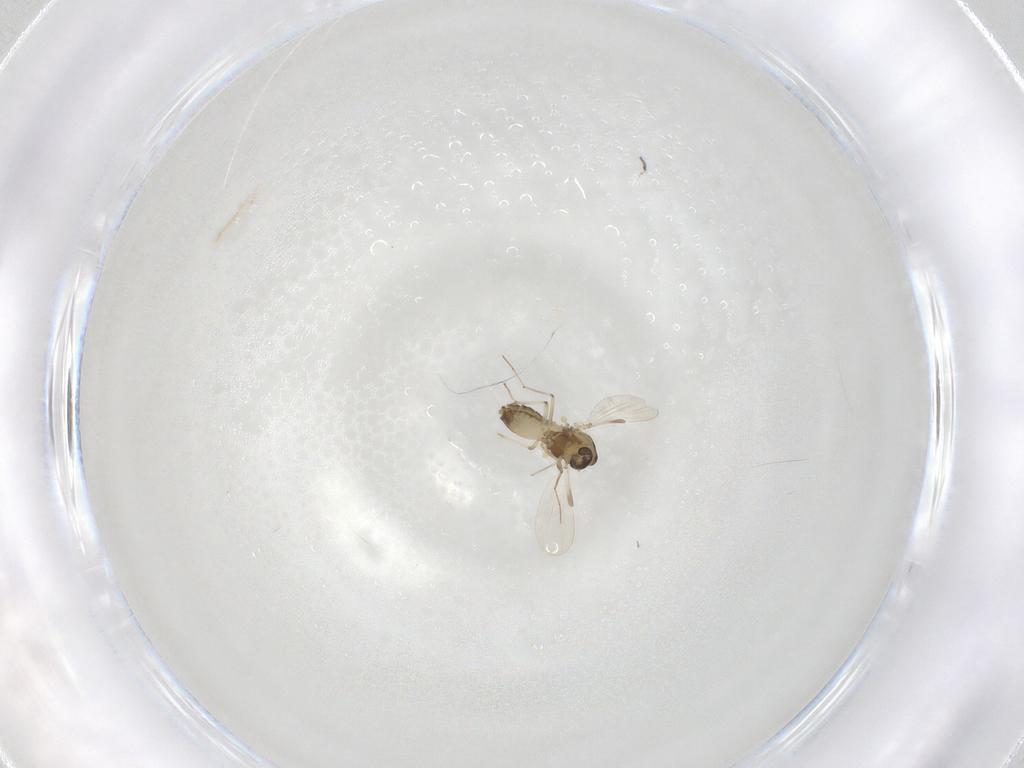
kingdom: Animalia
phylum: Arthropoda
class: Insecta
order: Diptera
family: Chironomidae
